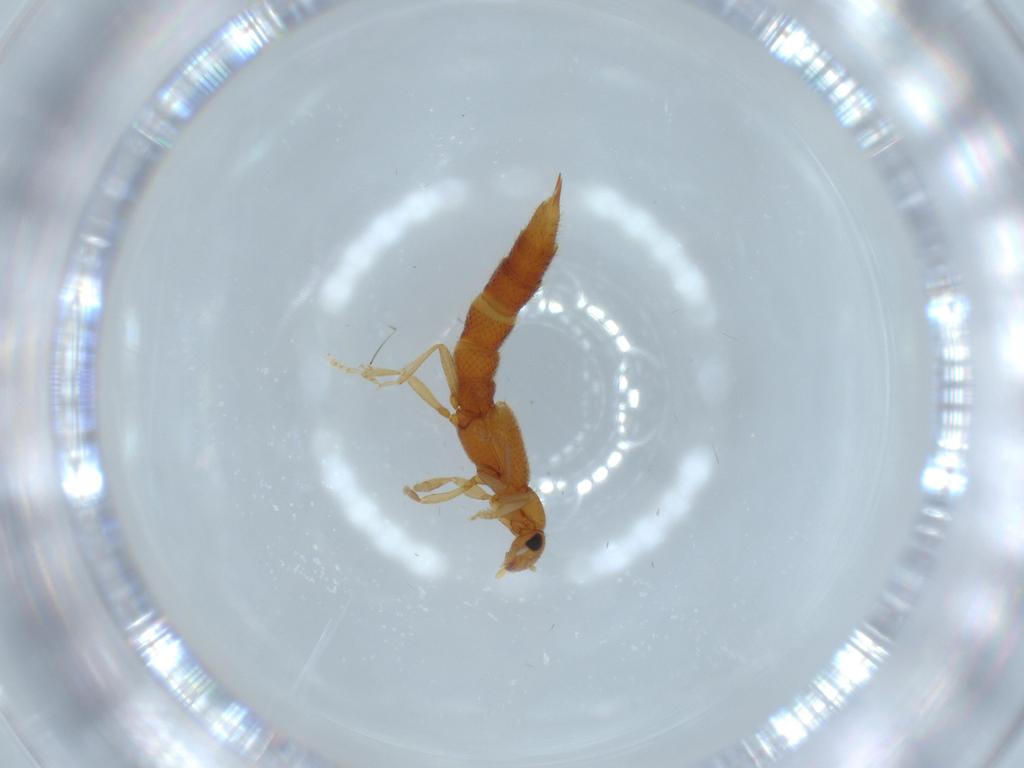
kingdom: Animalia
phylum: Arthropoda
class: Insecta
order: Coleoptera
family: Staphylinidae
